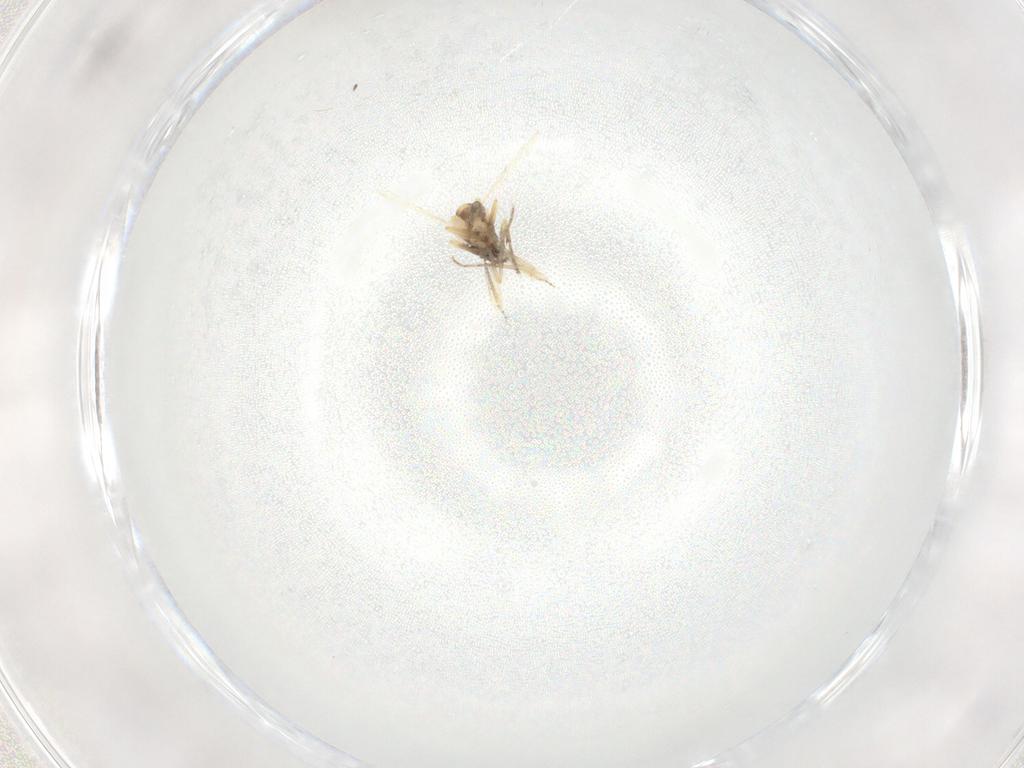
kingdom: Animalia
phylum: Arthropoda
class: Insecta
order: Diptera
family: Ceratopogonidae
